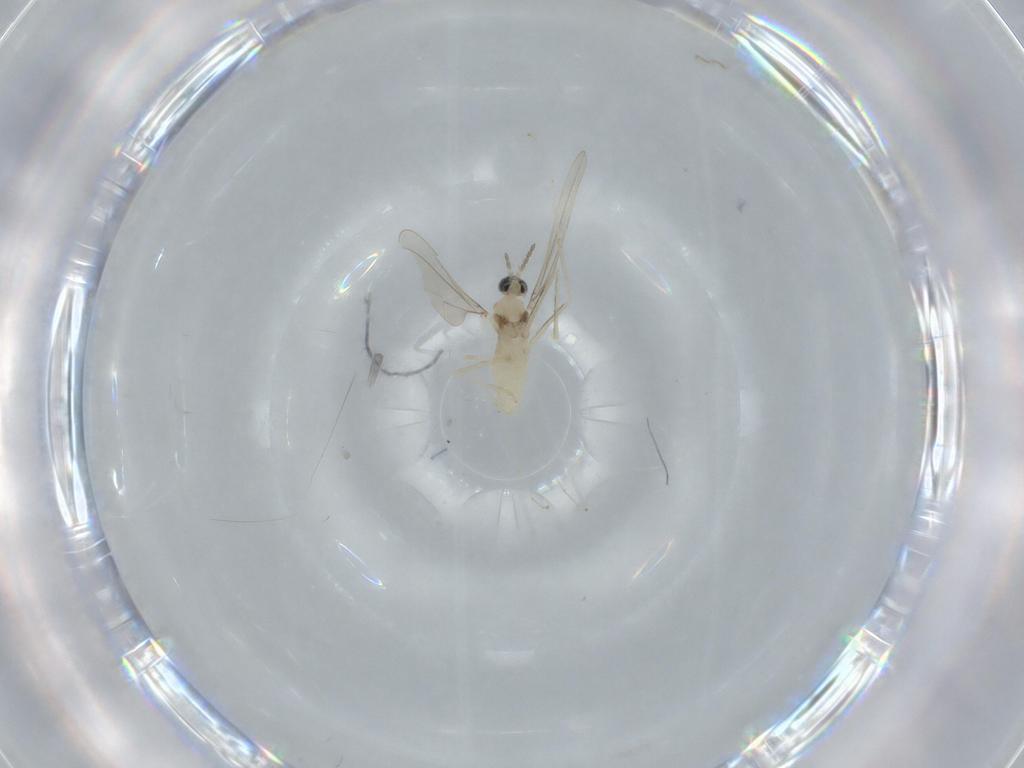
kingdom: Animalia
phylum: Arthropoda
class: Insecta
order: Diptera
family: Cecidomyiidae
